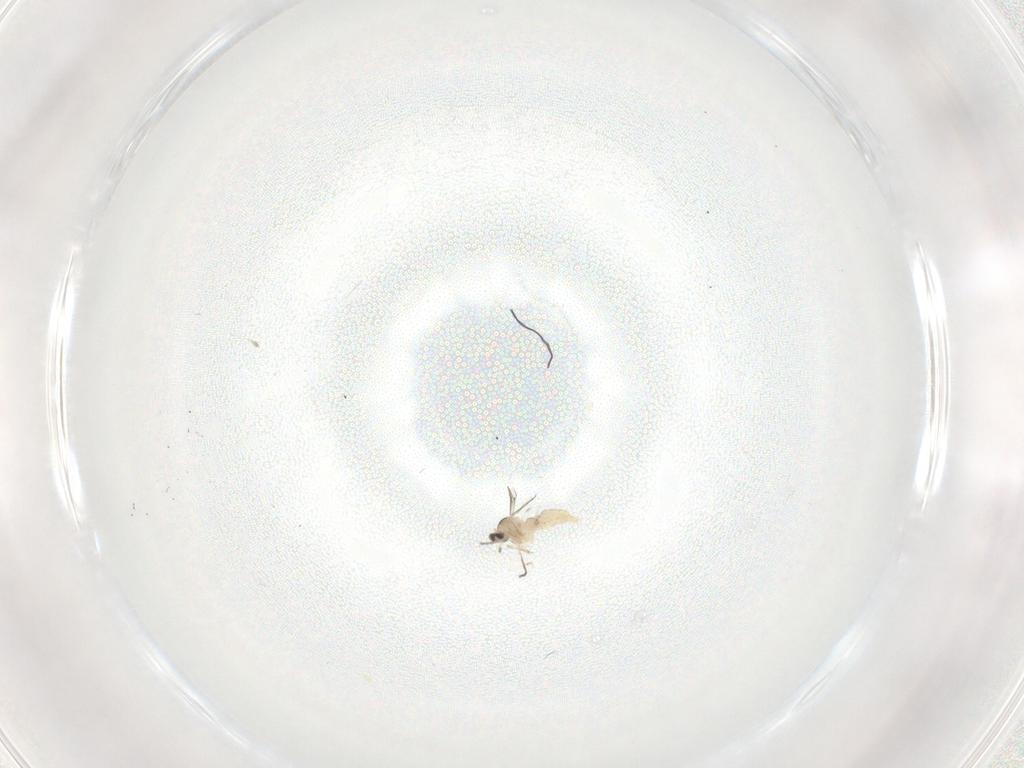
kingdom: Animalia
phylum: Arthropoda
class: Insecta
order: Diptera
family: Cecidomyiidae
